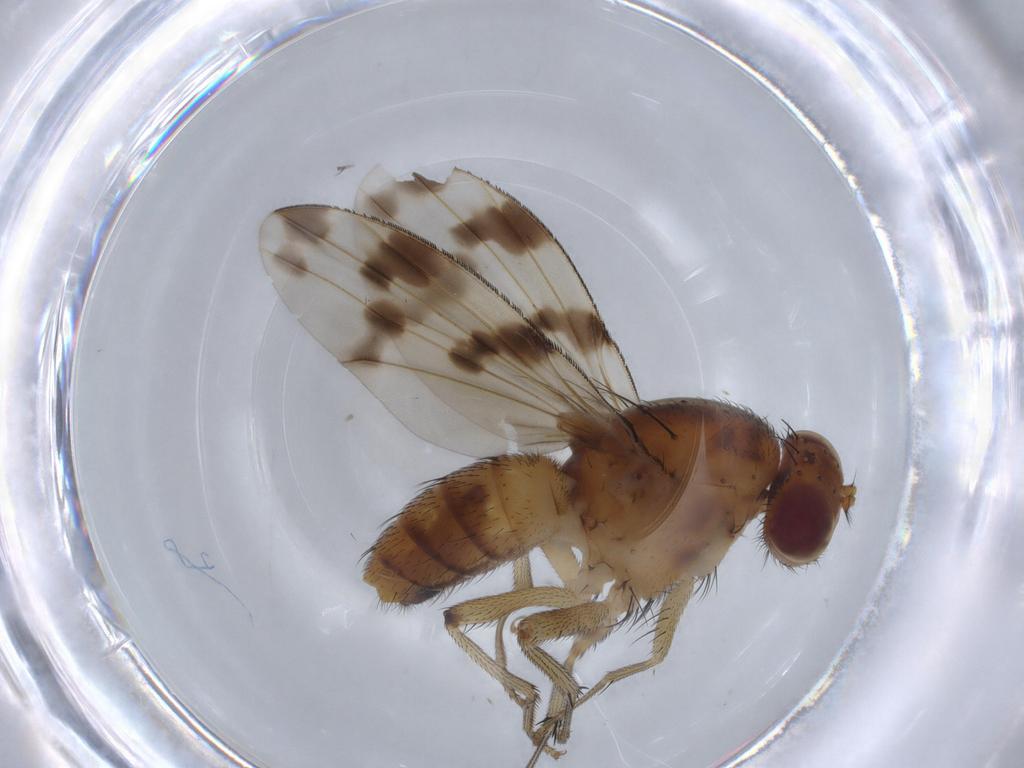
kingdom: Animalia
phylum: Arthropoda
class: Insecta
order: Diptera
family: Lauxaniidae
